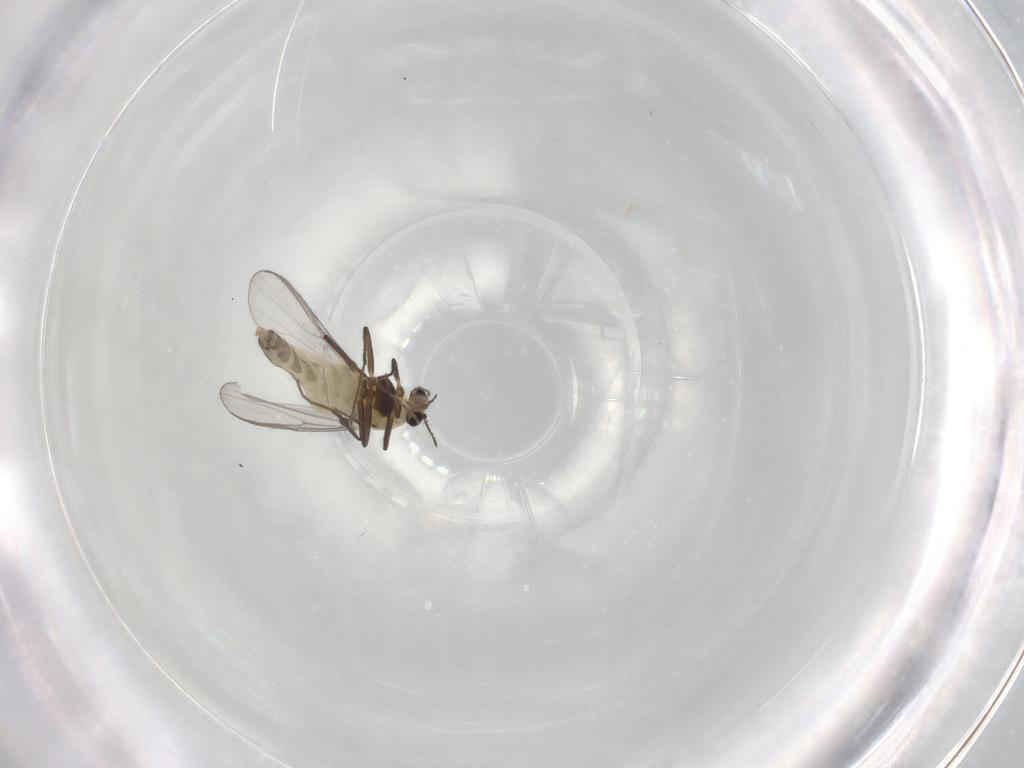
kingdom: Animalia
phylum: Arthropoda
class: Insecta
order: Diptera
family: Chironomidae
